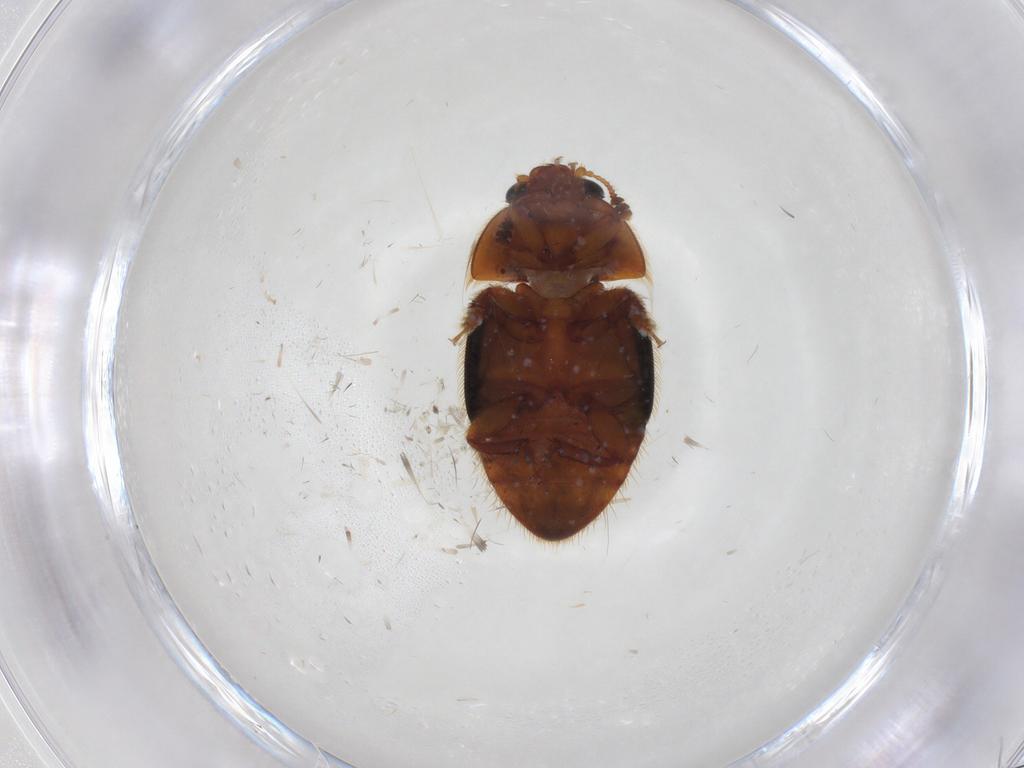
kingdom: Animalia
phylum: Arthropoda
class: Insecta
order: Coleoptera
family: Nitidulidae
